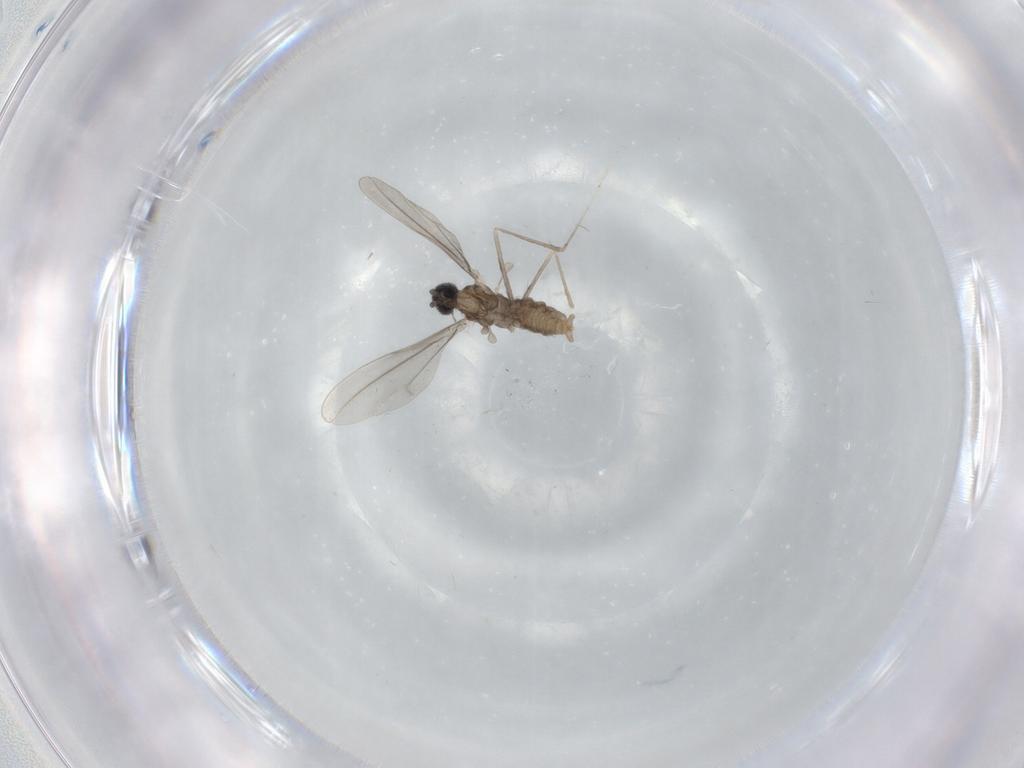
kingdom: Animalia
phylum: Arthropoda
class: Insecta
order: Diptera
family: Cecidomyiidae
